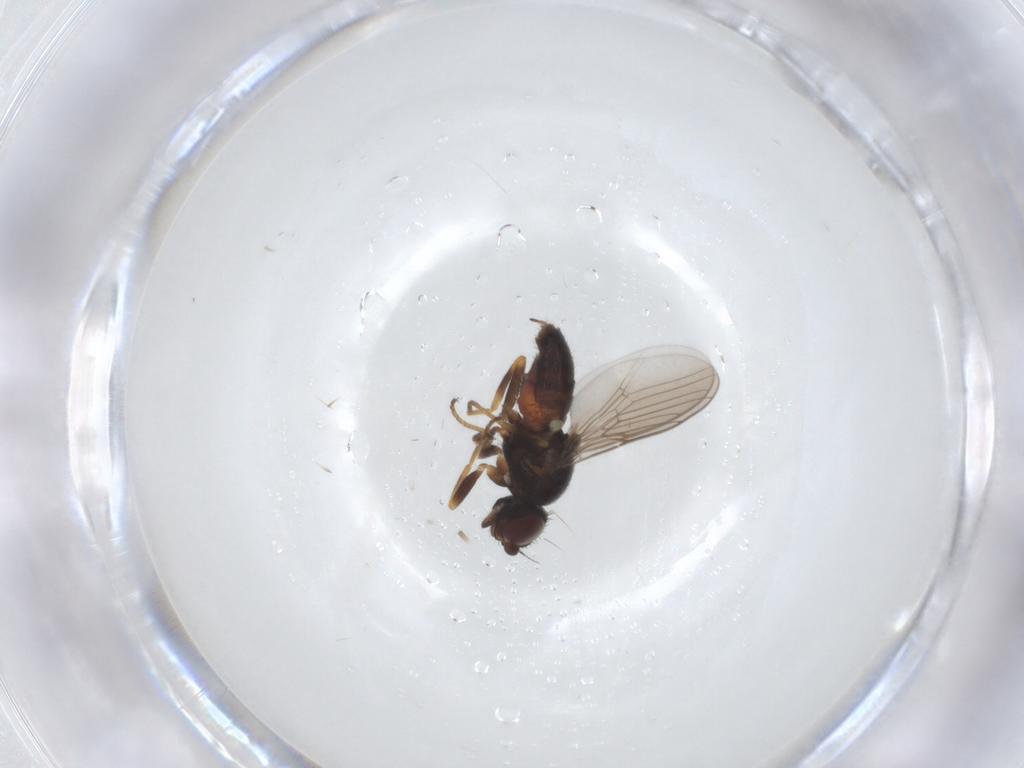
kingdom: Animalia
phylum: Arthropoda
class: Insecta
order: Diptera
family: Chloropidae
